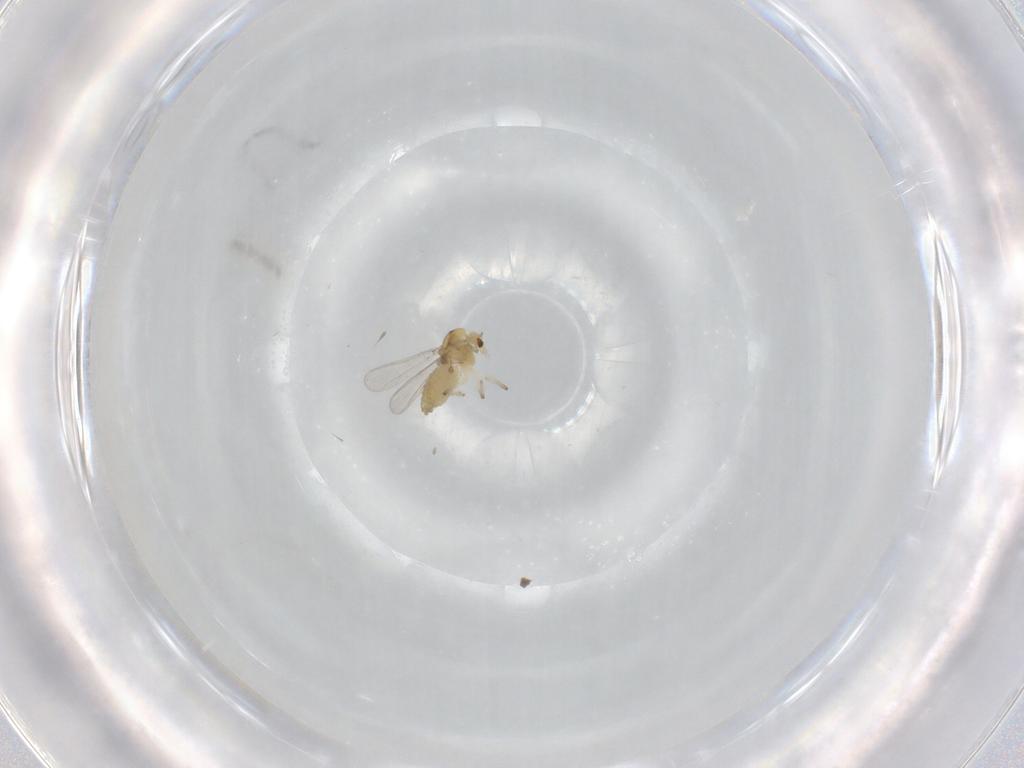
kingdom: Animalia
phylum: Arthropoda
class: Insecta
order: Diptera
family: Chironomidae
